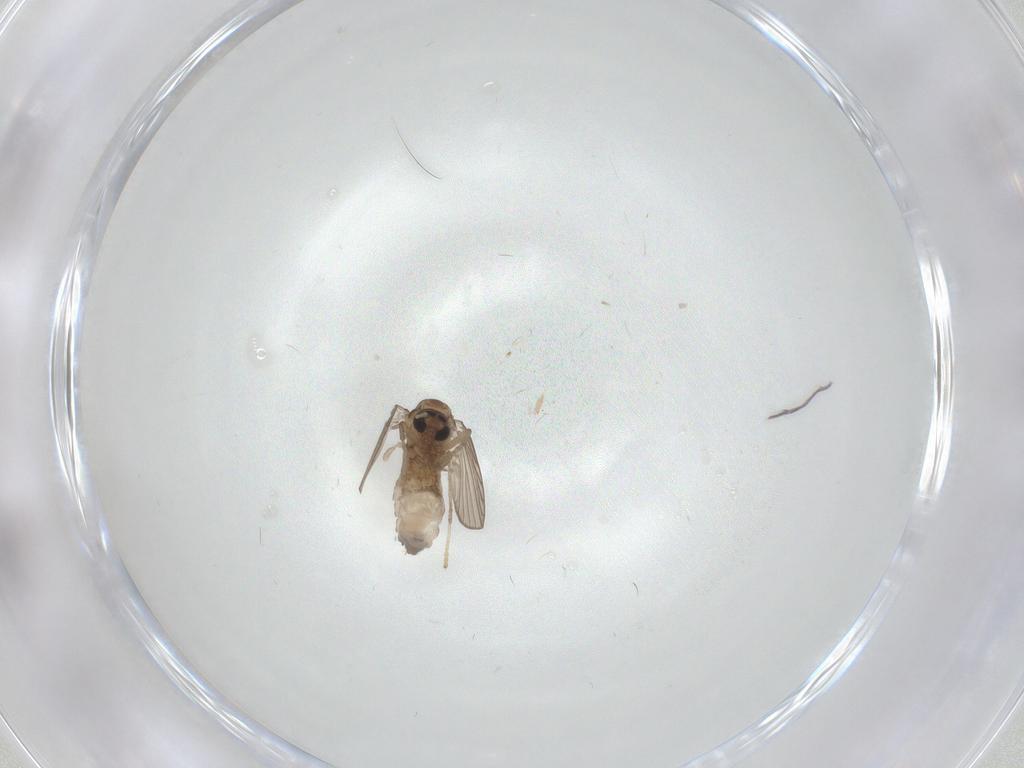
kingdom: Animalia
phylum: Arthropoda
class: Insecta
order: Diptera
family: Psychodidae
